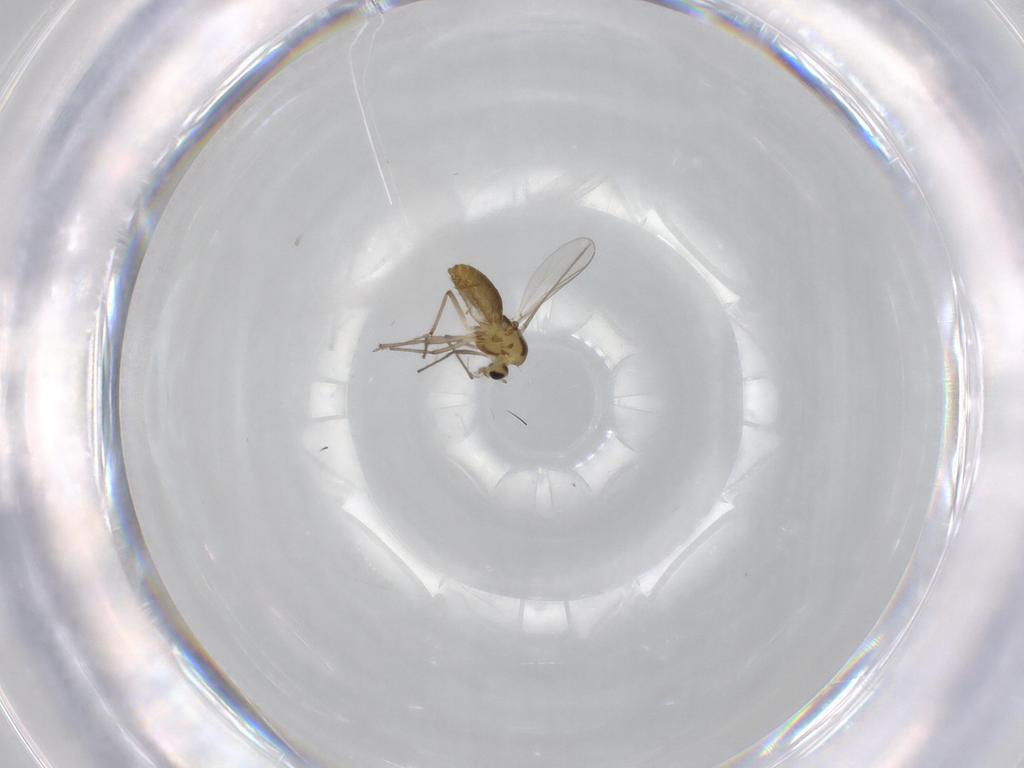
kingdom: Animalia
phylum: Arthropoda
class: Insecta
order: Diptera
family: Chironomidae
